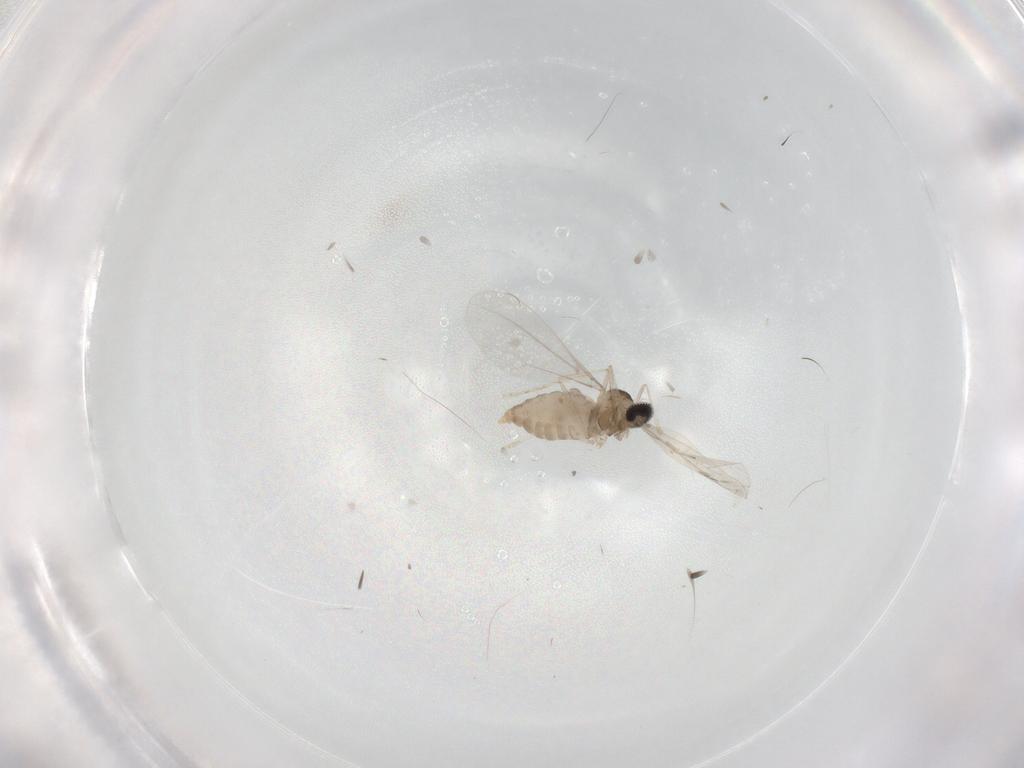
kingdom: Animalia
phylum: Arthropoda
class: Insecta
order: Diptera
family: Cecidomyiidae
